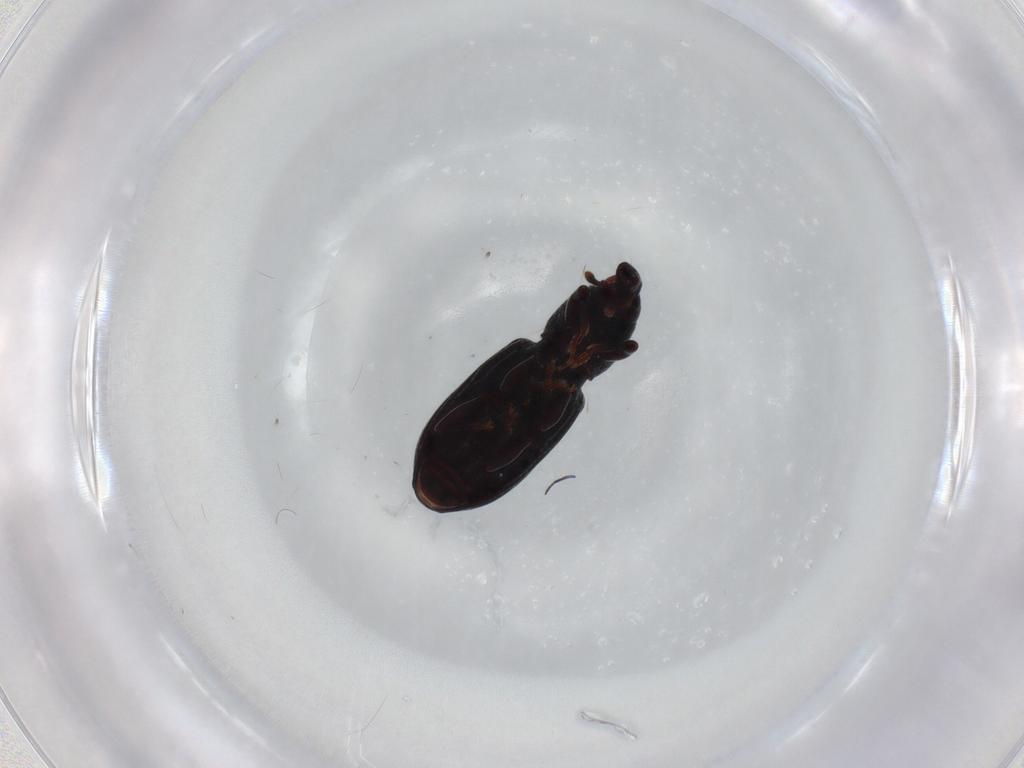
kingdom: Animalia
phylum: Arthropoda
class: Insecta
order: Coleoptera
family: Curculionidae
